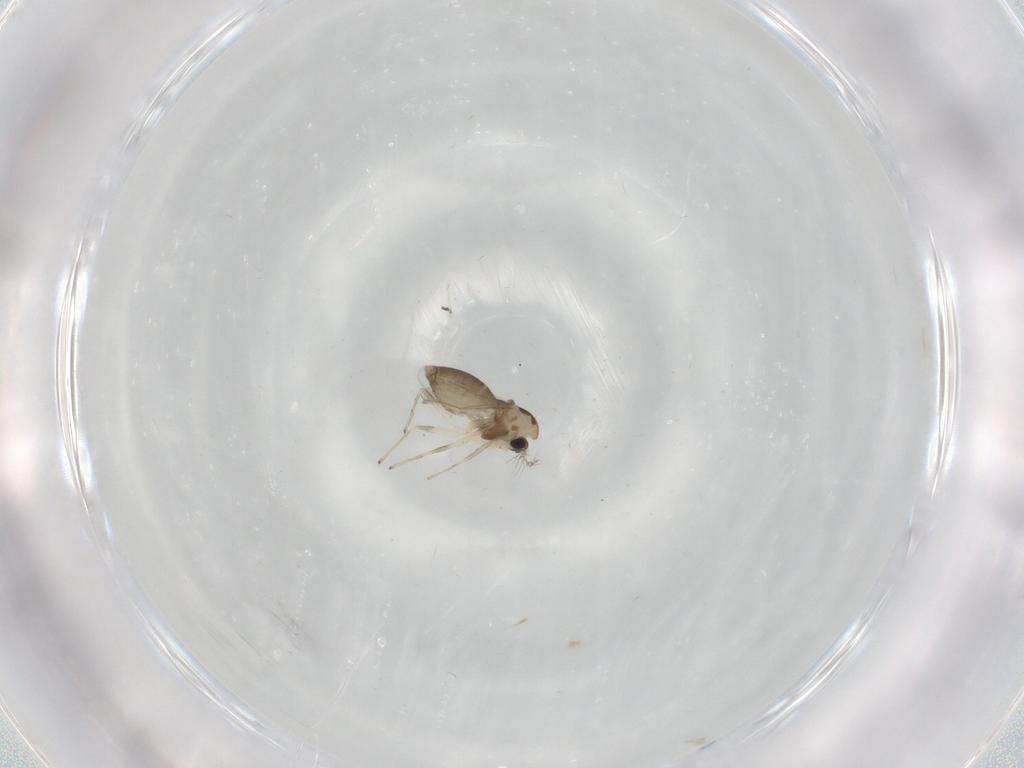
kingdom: Animalia
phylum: Arthropoda
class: Insecta
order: Diptera
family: Chironomidae
